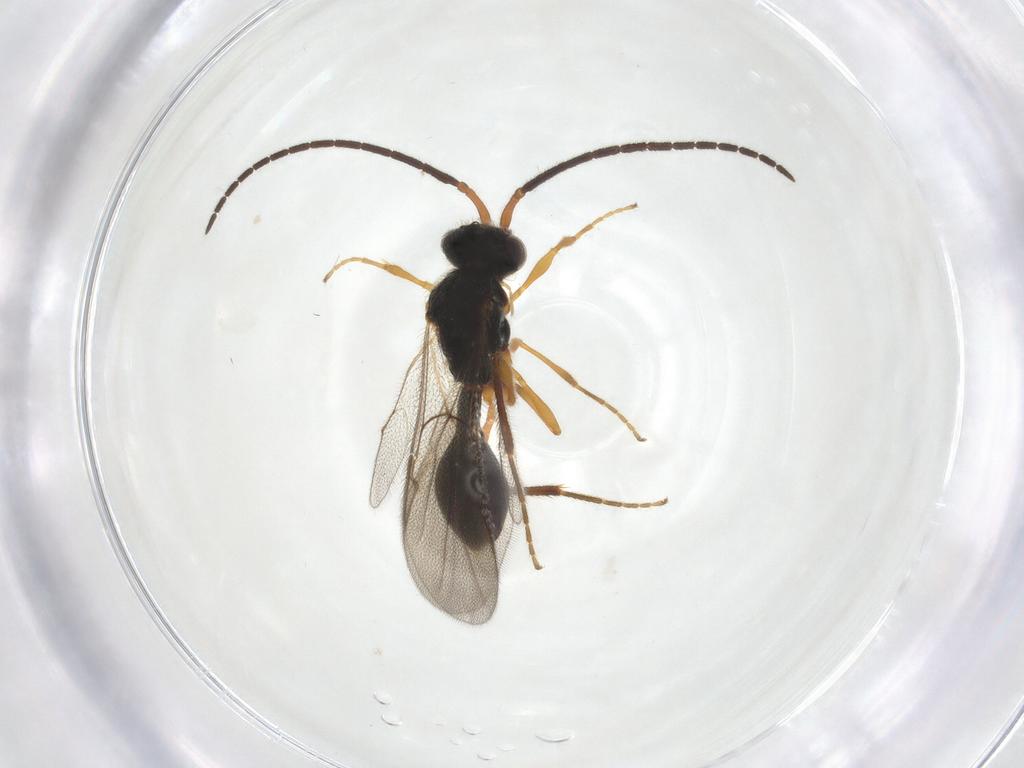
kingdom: Animalia
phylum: Arthropoda
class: Insecta
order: Hymenoptera
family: Diapriidae
